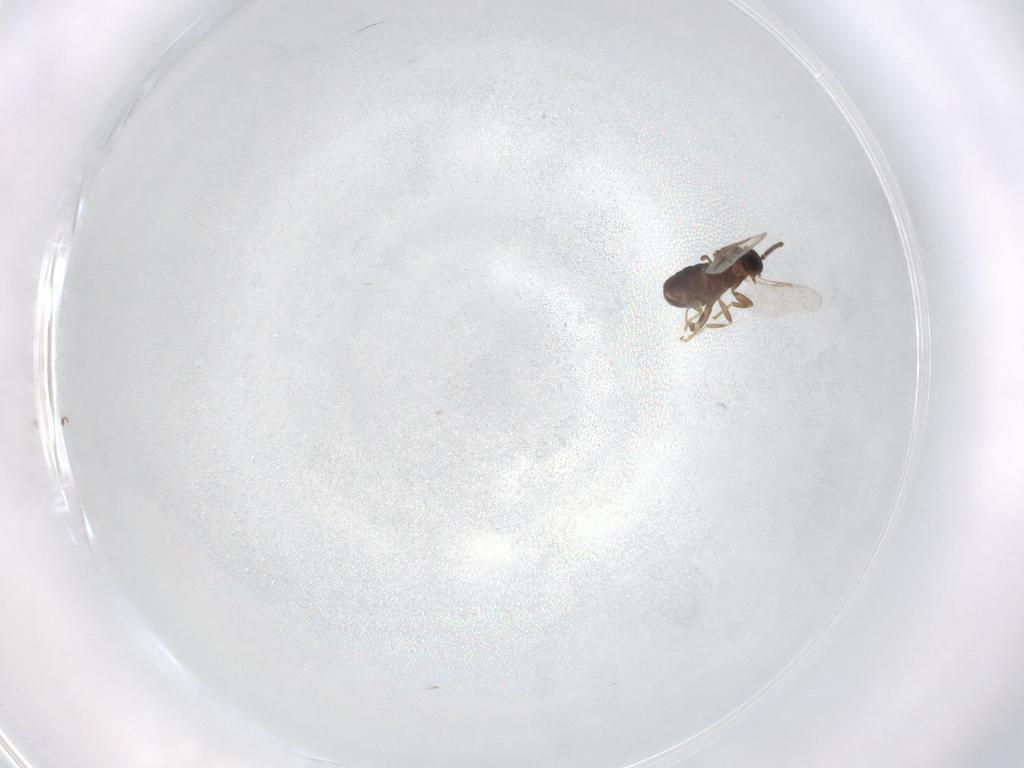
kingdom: Animalia
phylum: Arthropoda
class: Insecta
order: Diptera
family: Scatopsidae
